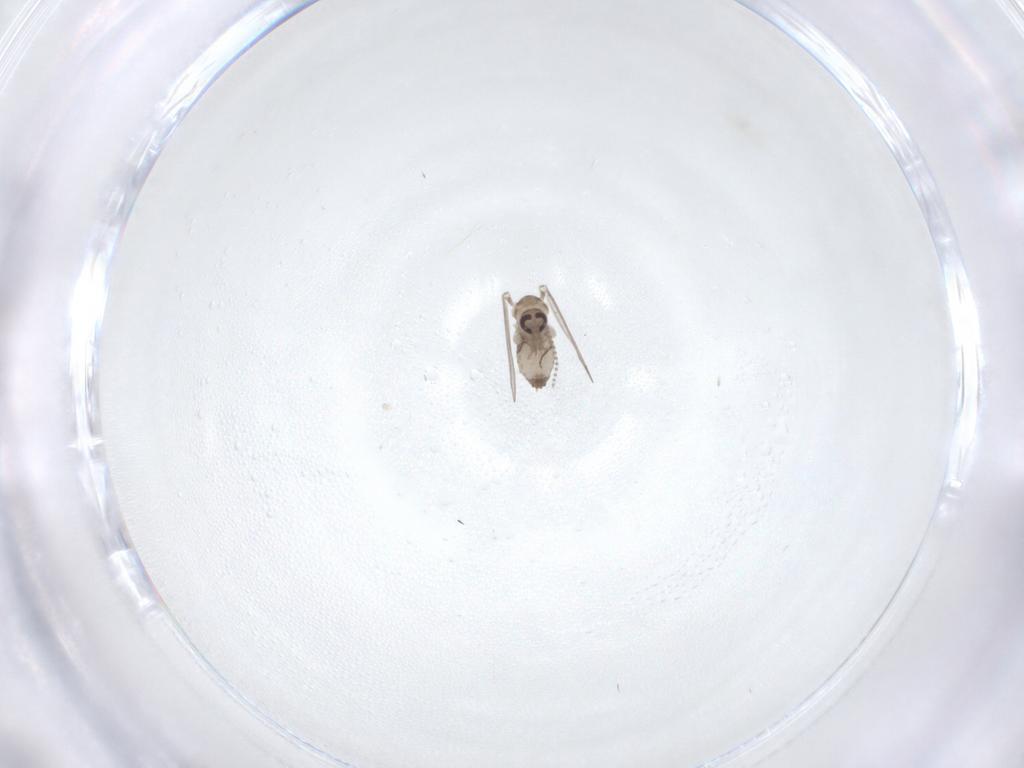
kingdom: Animalia
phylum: Arthropoda
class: Insecta
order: Diptera
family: Psychodidae
